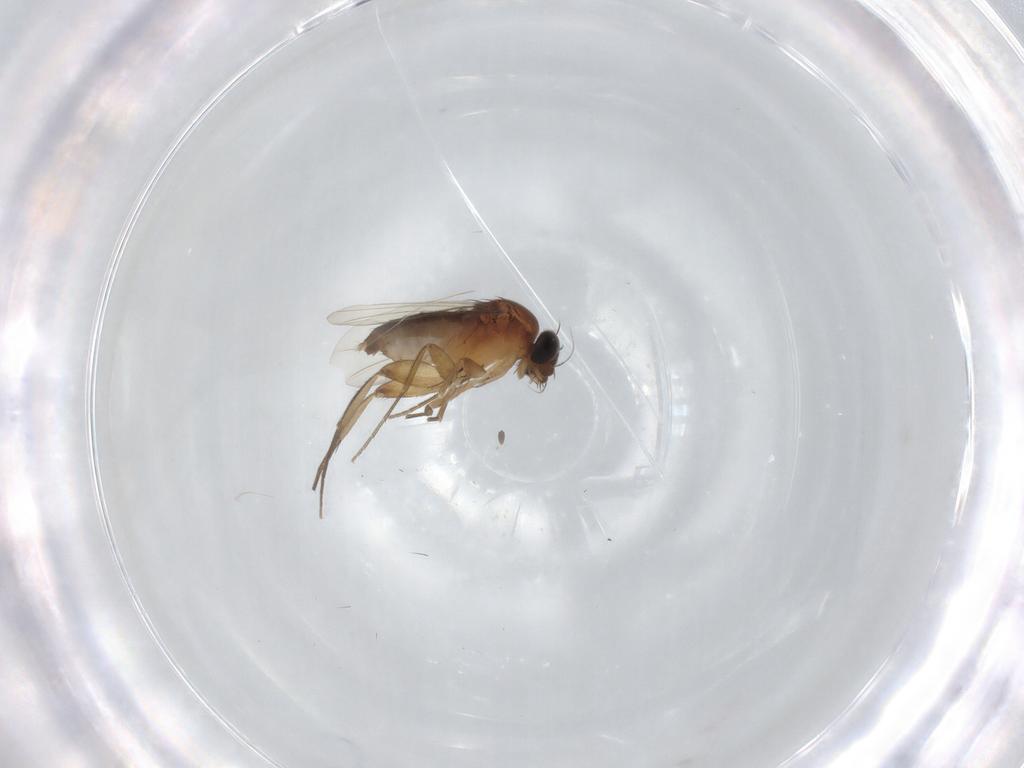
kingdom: Animalia
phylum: Arthropoda
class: Insecta
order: Diptera
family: Phoridae
